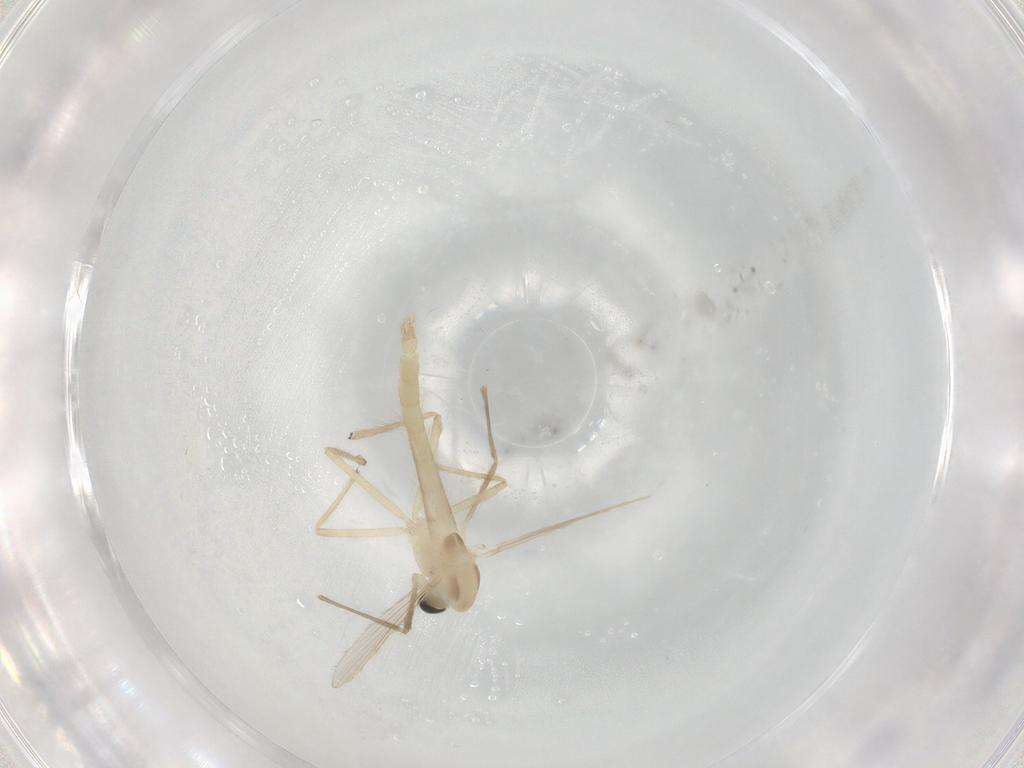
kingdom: Animalia
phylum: Arthropoda
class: Insecta
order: Diptera
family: Chironomidae
